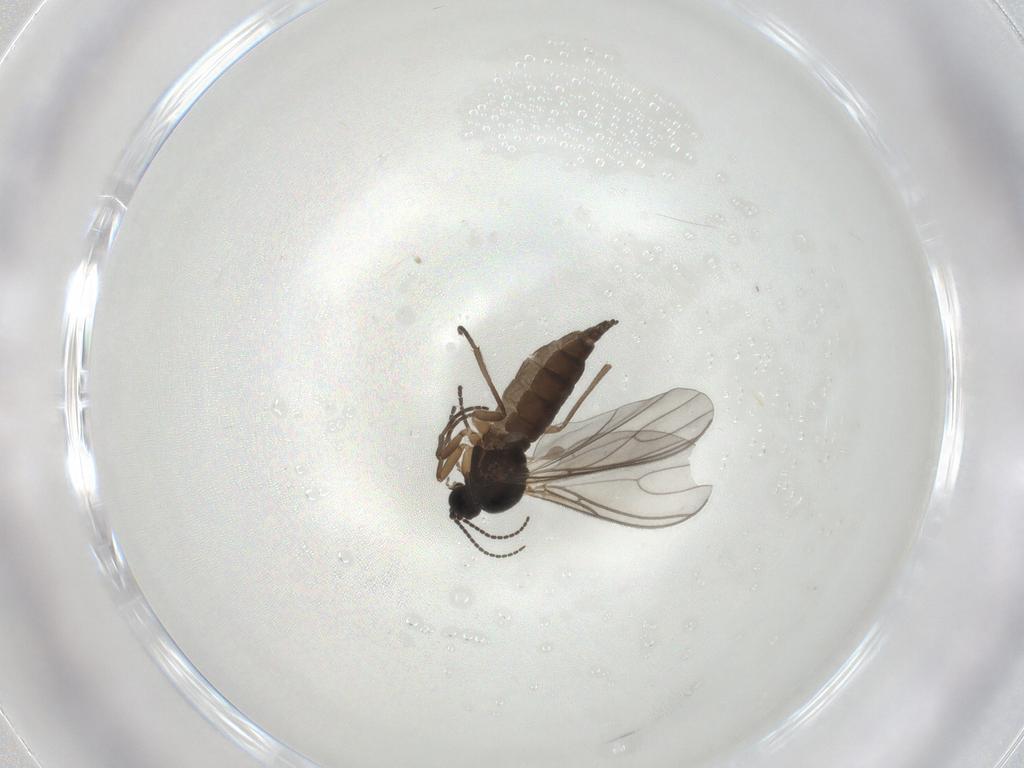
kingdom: Animalia
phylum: Arthropoda
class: Insecta
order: Diptera
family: Sciaridae
